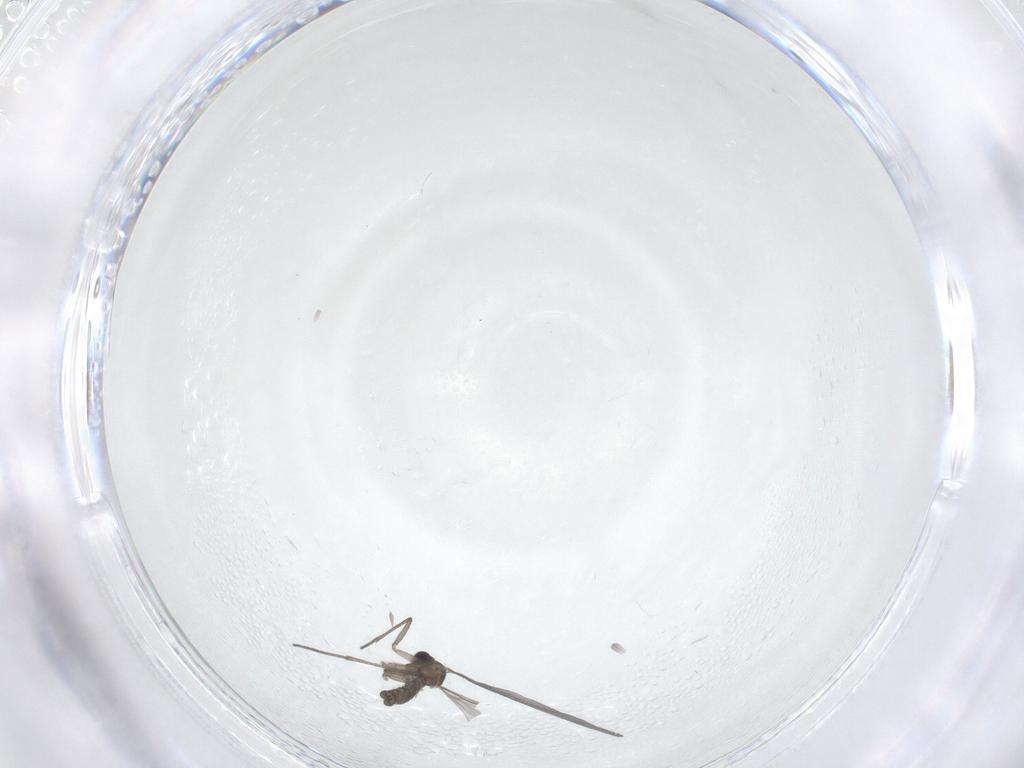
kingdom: Animalia
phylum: Arthropoda
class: Insecta
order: Diptera
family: Sciaridae
